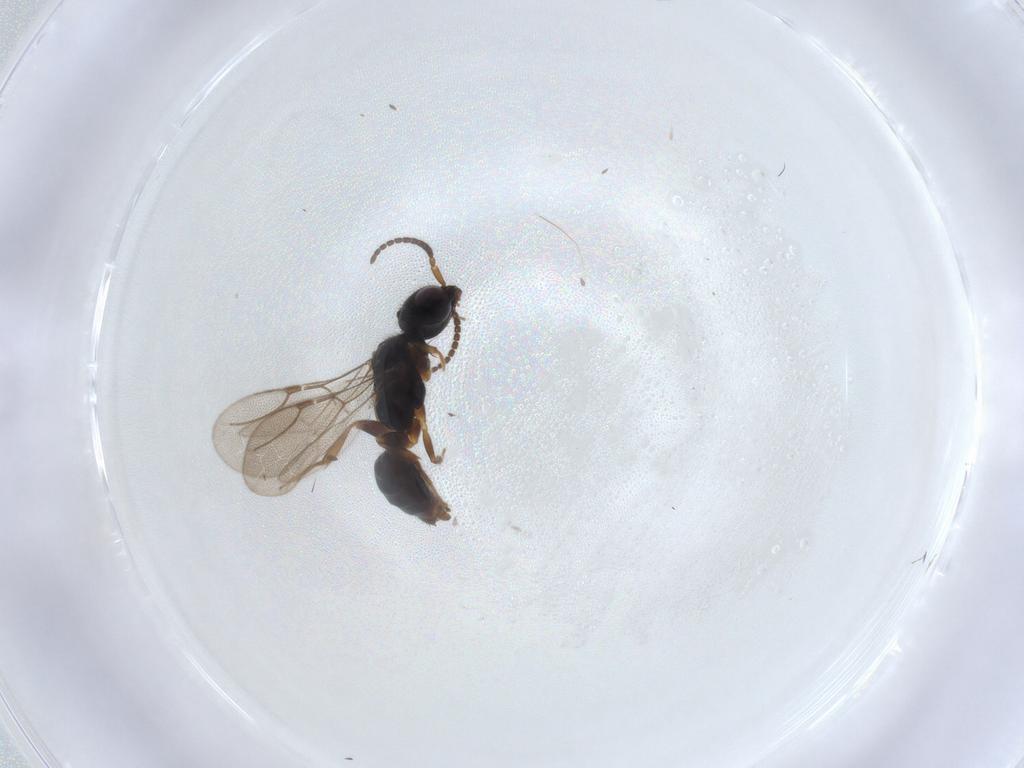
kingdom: Animalia
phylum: Arthropoda
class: Insecta
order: Hymenoptera
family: Bethylidae
